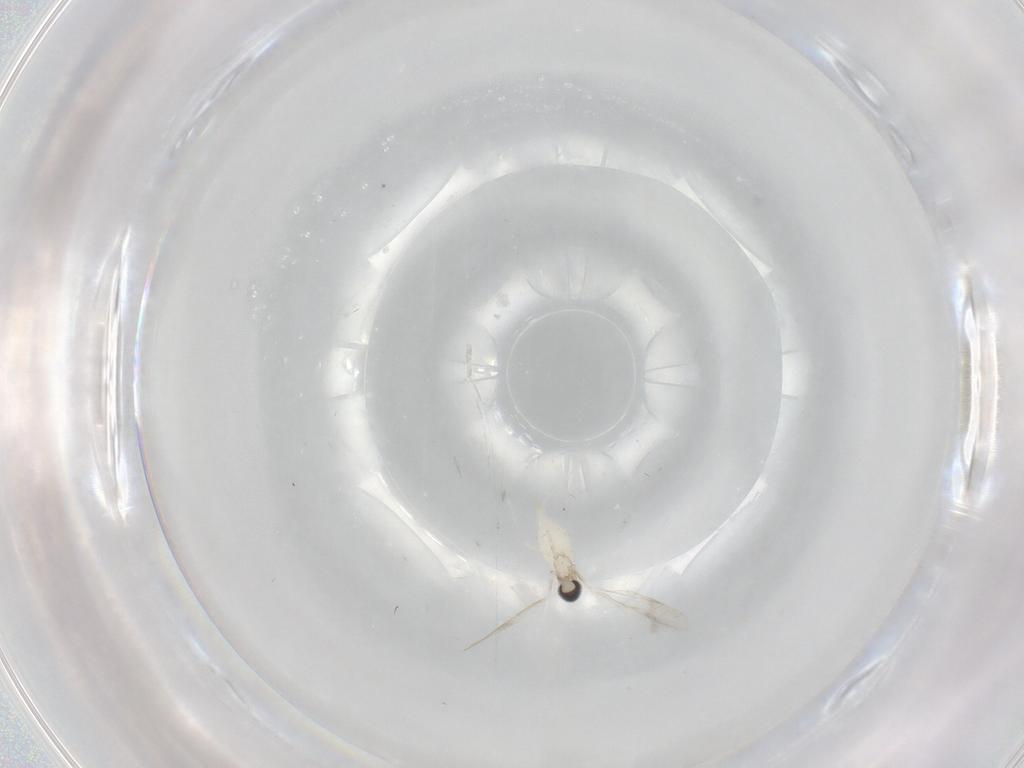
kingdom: Animalia
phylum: Arthropoda
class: Insecta
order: Diptera
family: Cecidomyiidae
